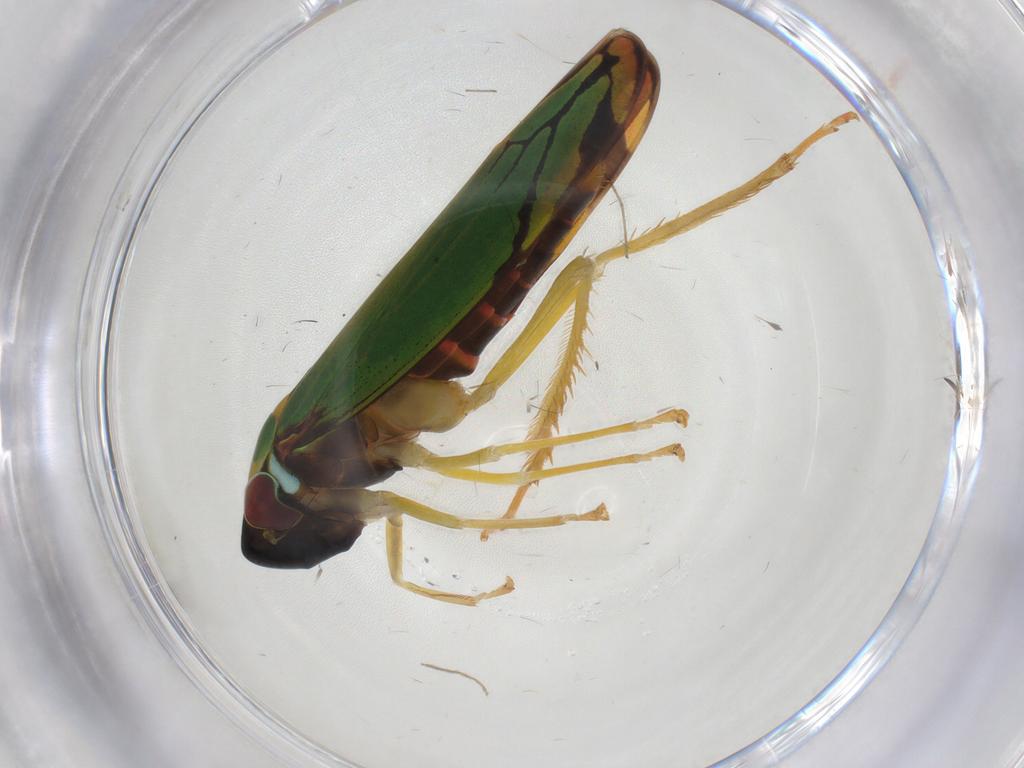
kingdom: Animalia
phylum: Arthropoda
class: Insecta
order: Hemiptera
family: Cicadellidae
